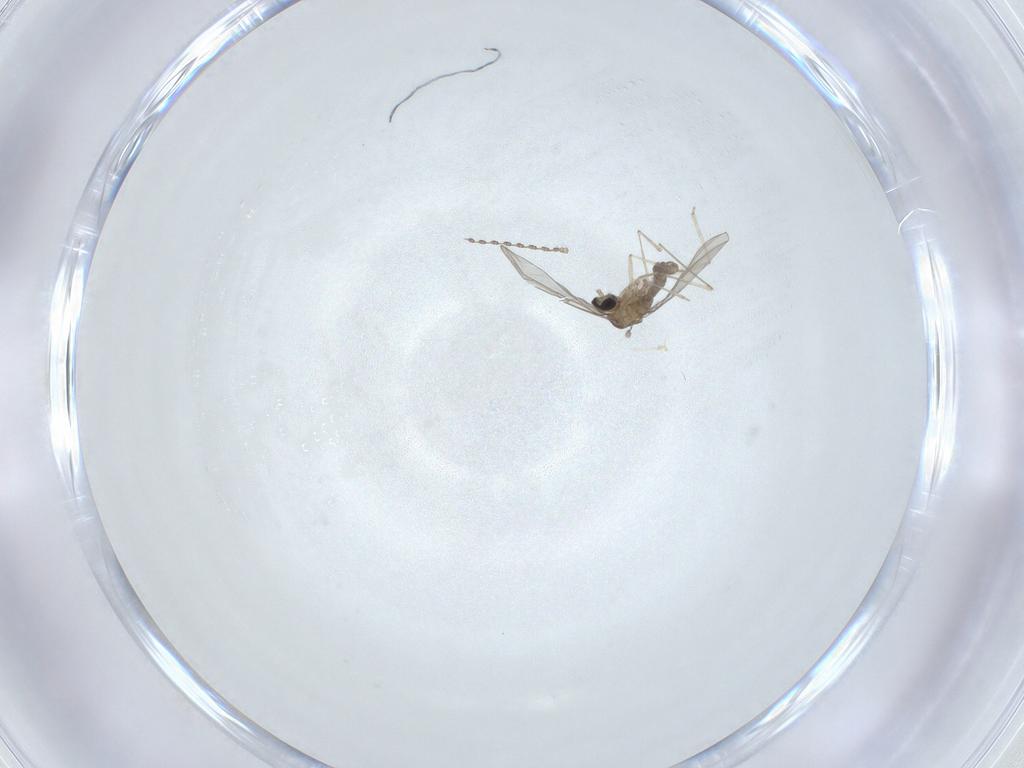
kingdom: Animalia
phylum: Arthropoda
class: Insecta
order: Diptera
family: Cecidomyiidae
